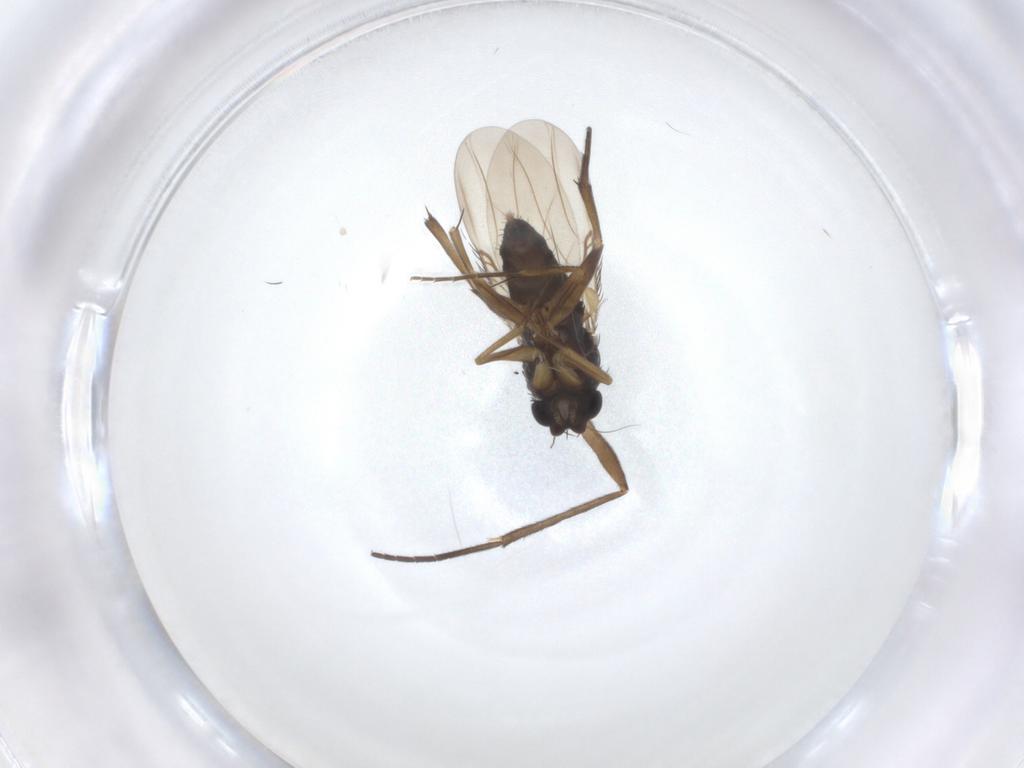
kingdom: Animalia
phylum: Arthropoda
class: Insecta
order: Diptera
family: Phoridae
